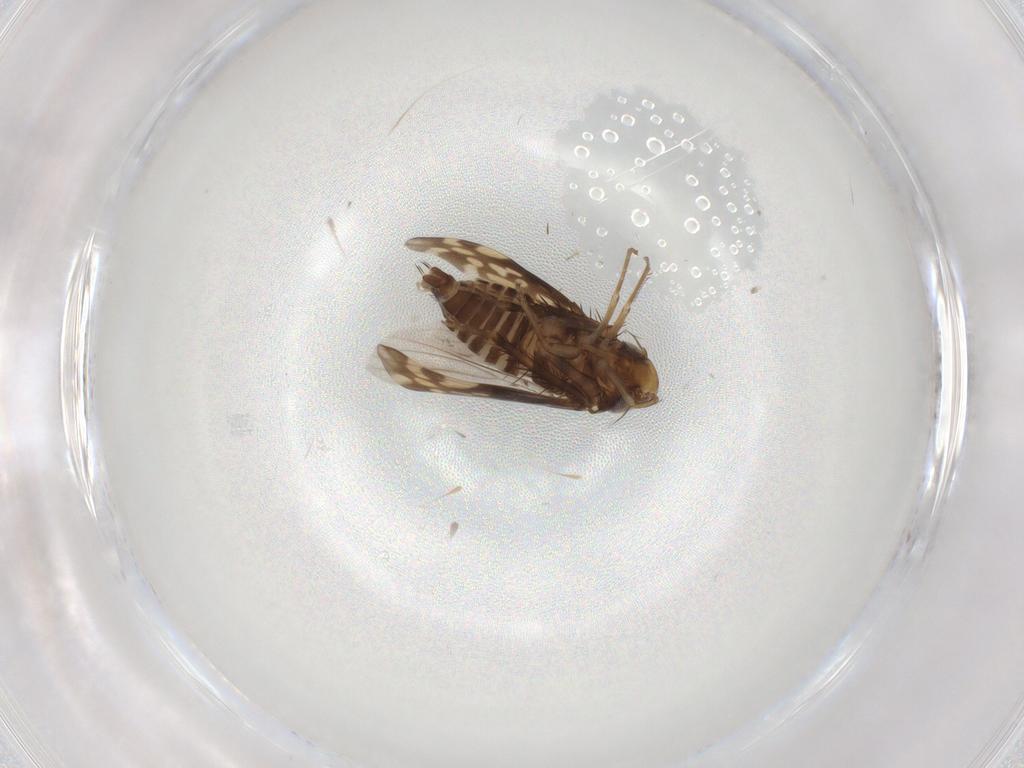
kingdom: Animalia
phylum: Arthropoda
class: Insecta
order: Hemiptera
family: Cicadellidae
